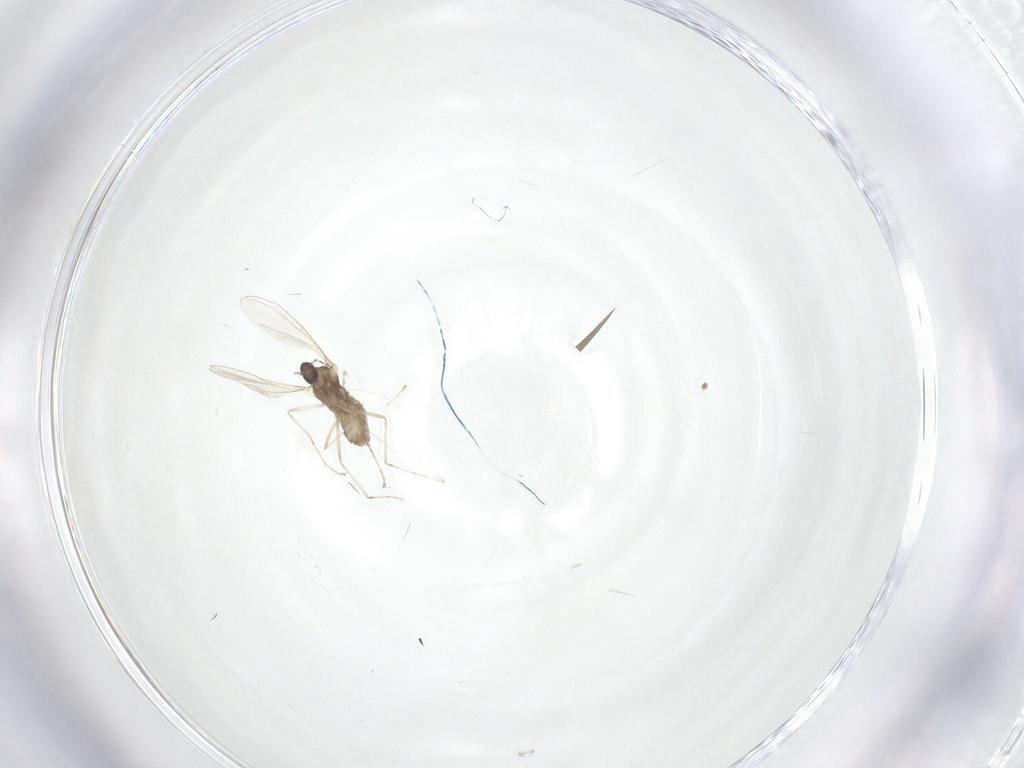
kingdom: Animalia
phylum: Arthropoda
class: Insecta
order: Diptera
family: Cecidomyiidae
